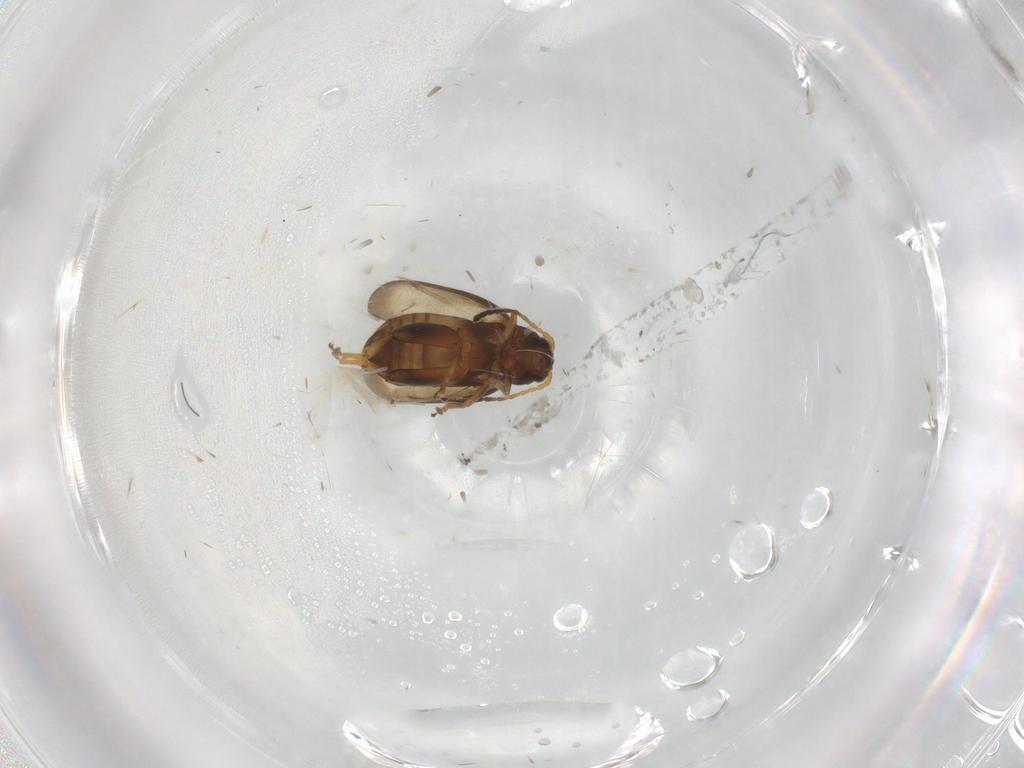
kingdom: Animalia
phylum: Arthropoda
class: Insecta
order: Coleoptera
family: Chrysomelidae
